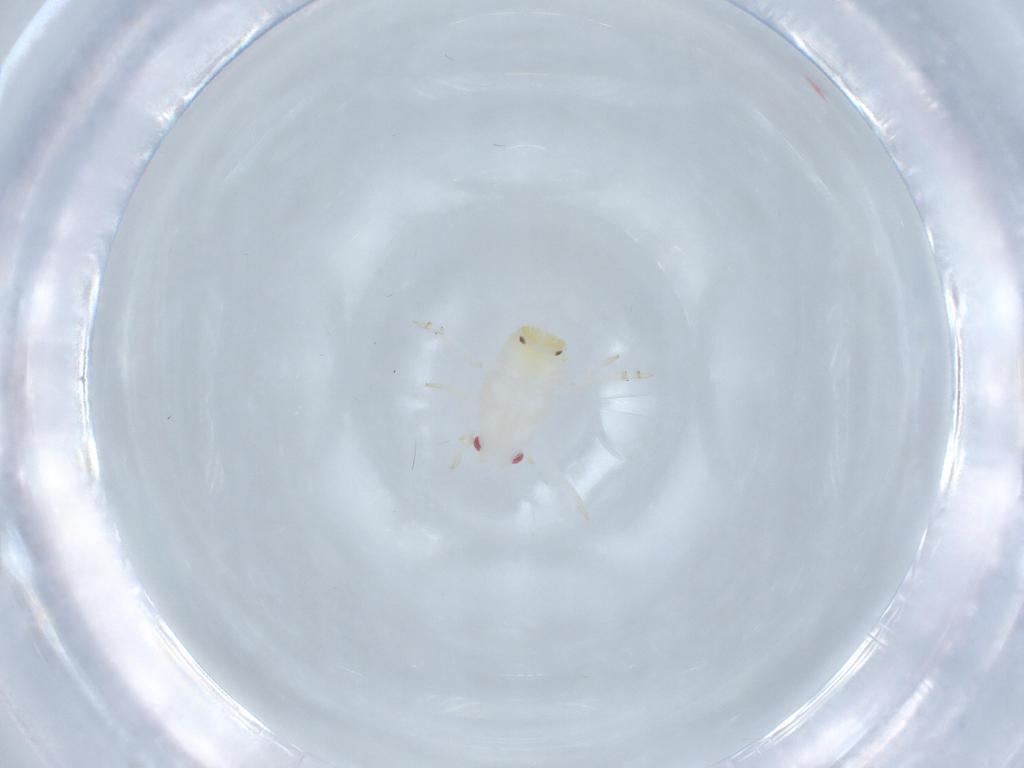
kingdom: Animalia
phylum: Arthropoda
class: Insecta
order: Hemiptera
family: Flatidae
